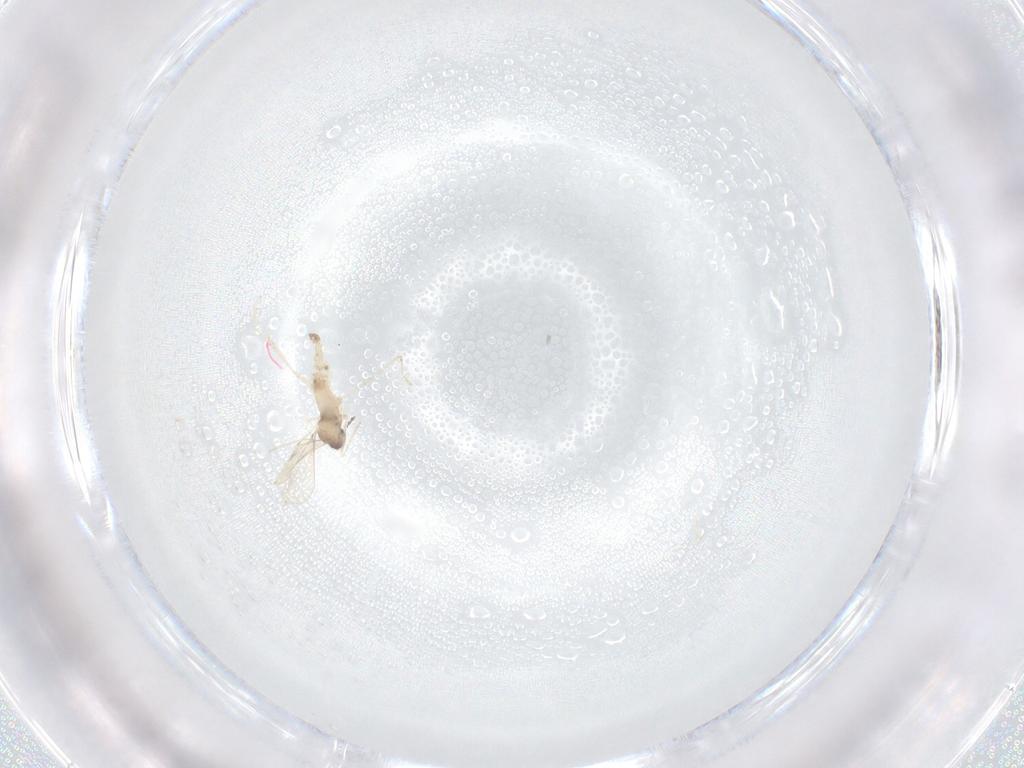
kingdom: Animalia
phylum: Arthropoda
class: Insecta
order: Diptera
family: Cecidomyiidae
